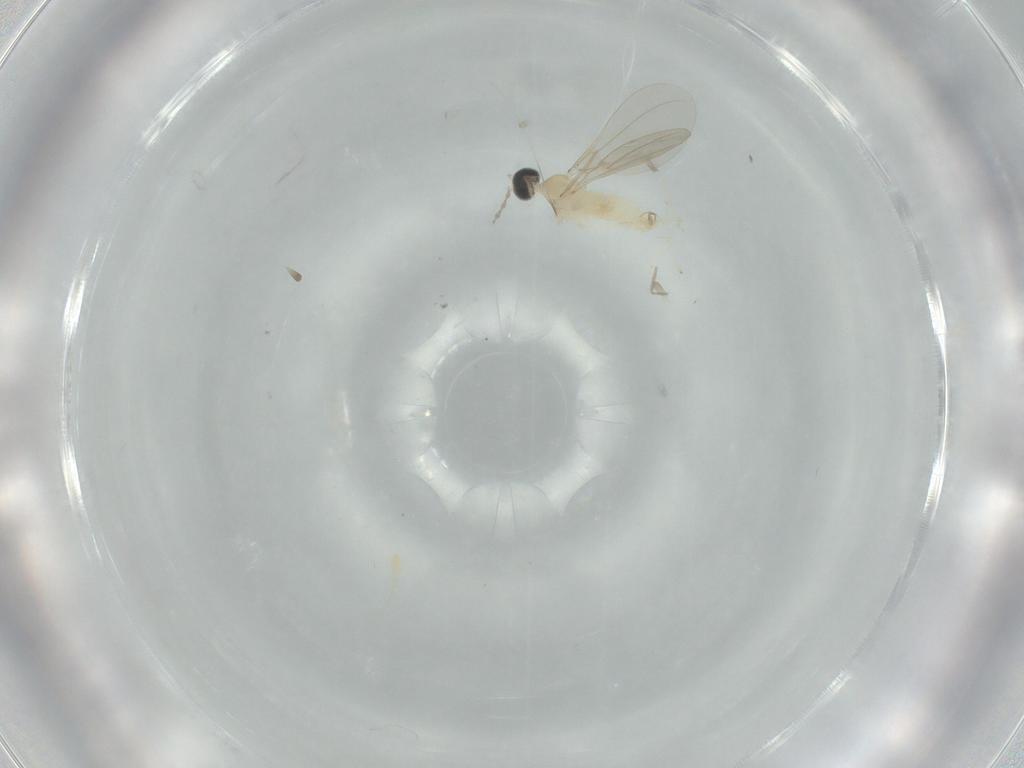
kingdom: Animalia
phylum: Arthropoda
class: Insecta
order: Diptera
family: Cecidomyiidae
